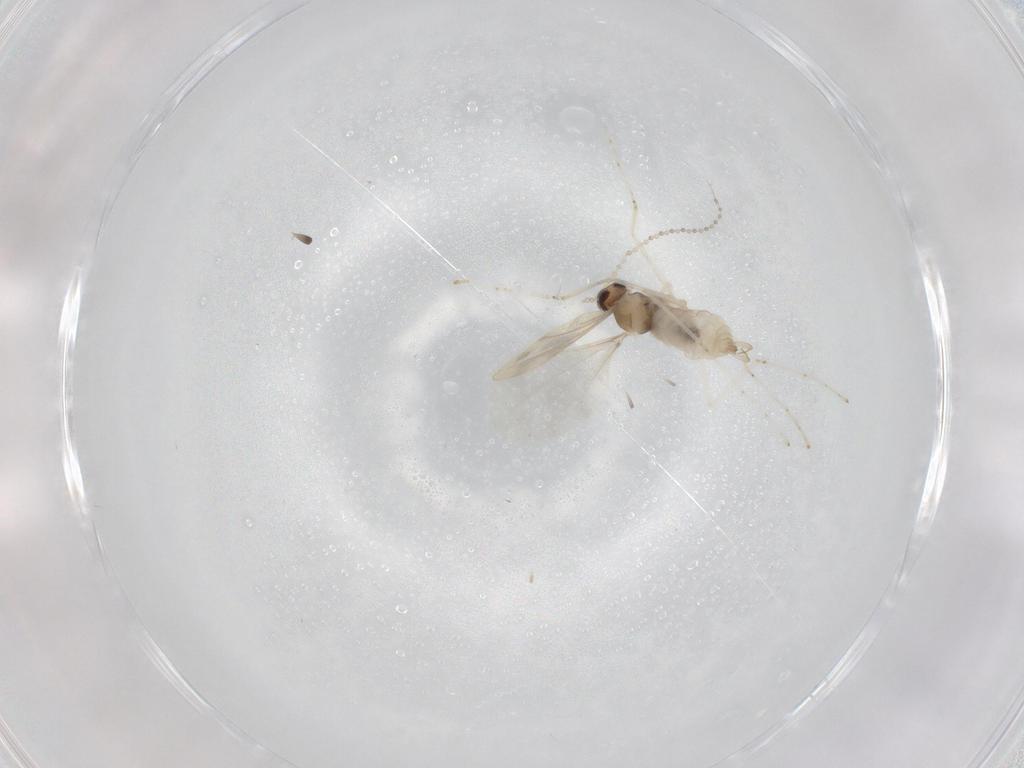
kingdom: Animalia
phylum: Arthropoda
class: Insecta
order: Diptera
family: Cecidomyiidae
